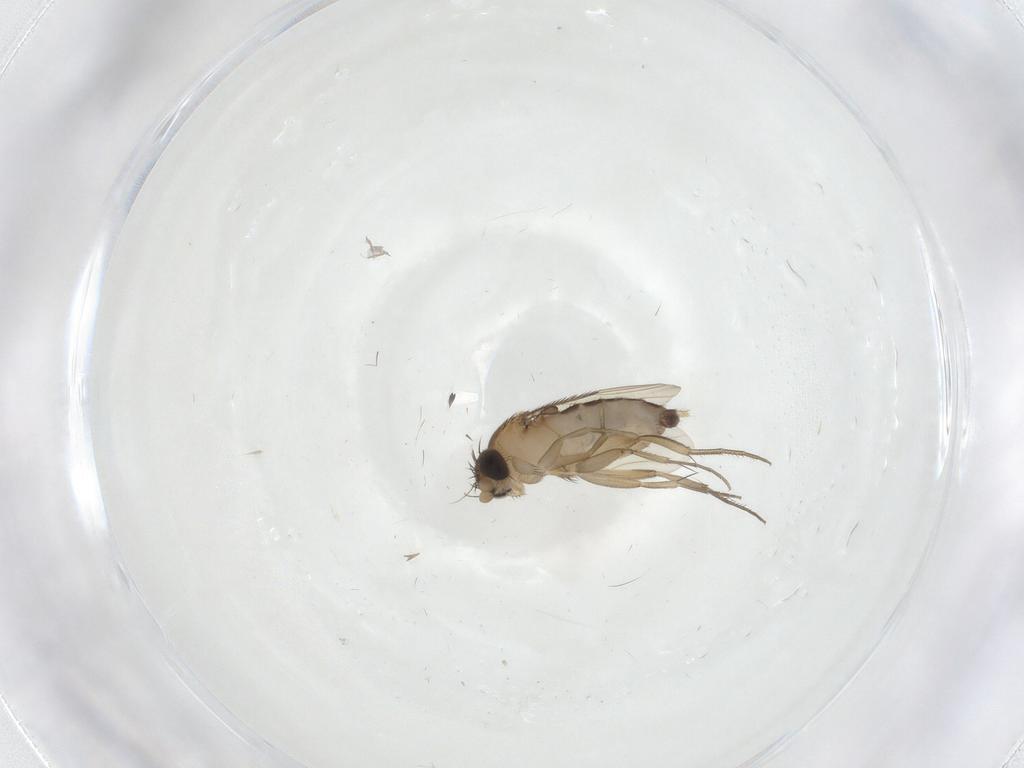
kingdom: Animalia
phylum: Arthropoda
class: Insecta
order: Diptera
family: Phoridae
